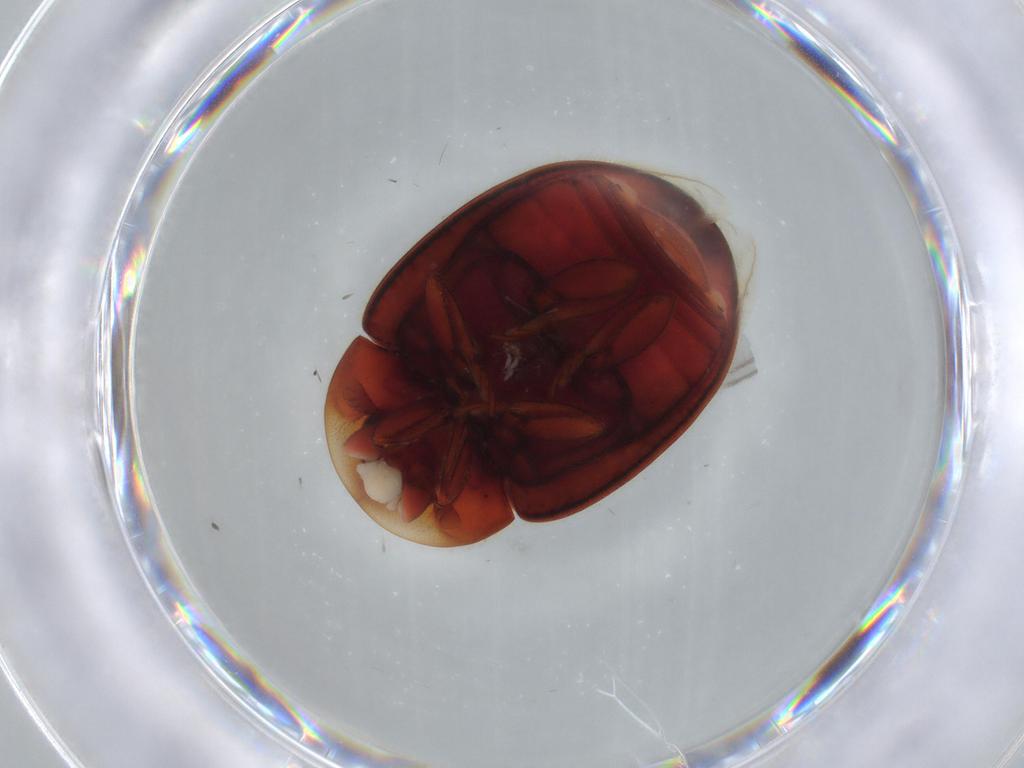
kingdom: Animalia
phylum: Arthropoda
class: Insecta
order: Coleoptera
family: Coccinellidae
